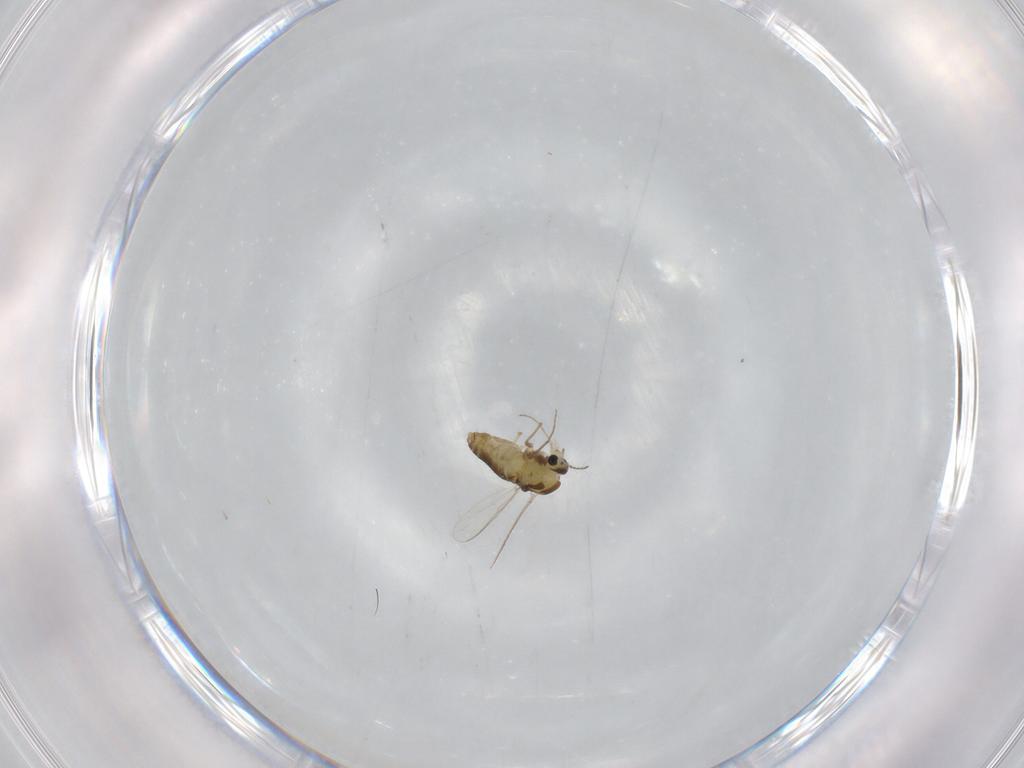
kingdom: Animalia
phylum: Arthropoda
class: Insecta
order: Diptera
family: Chironomidae
